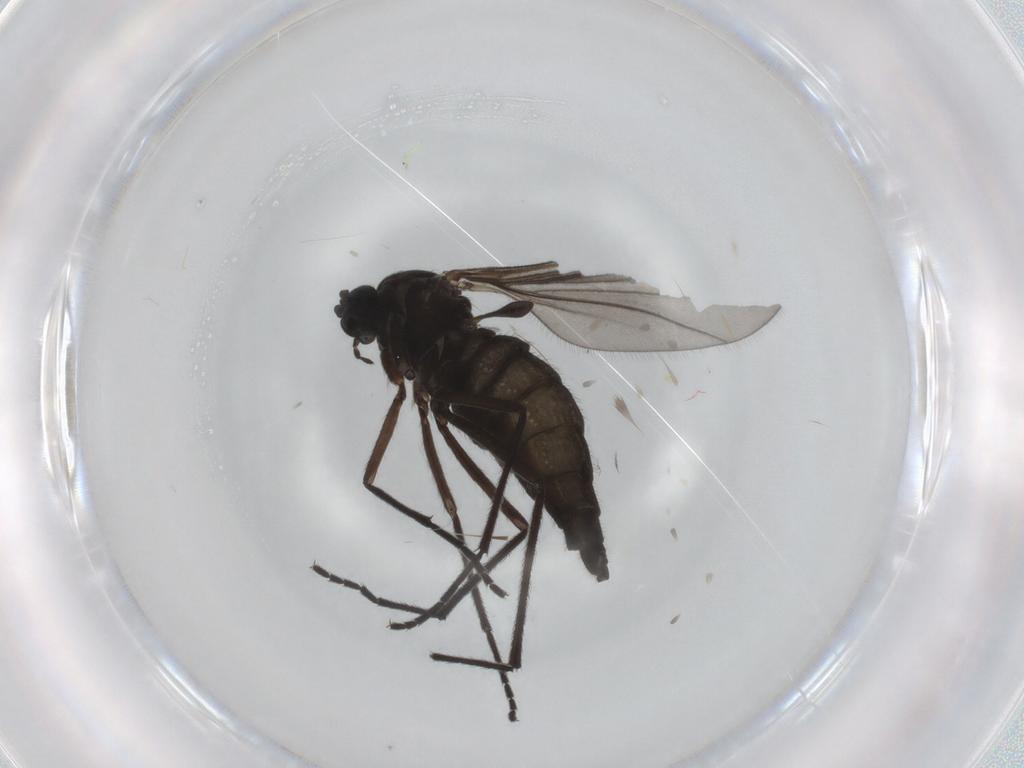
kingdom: Animalia
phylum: Arthropoda
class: Insecta
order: Diptera
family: Sciaridae
